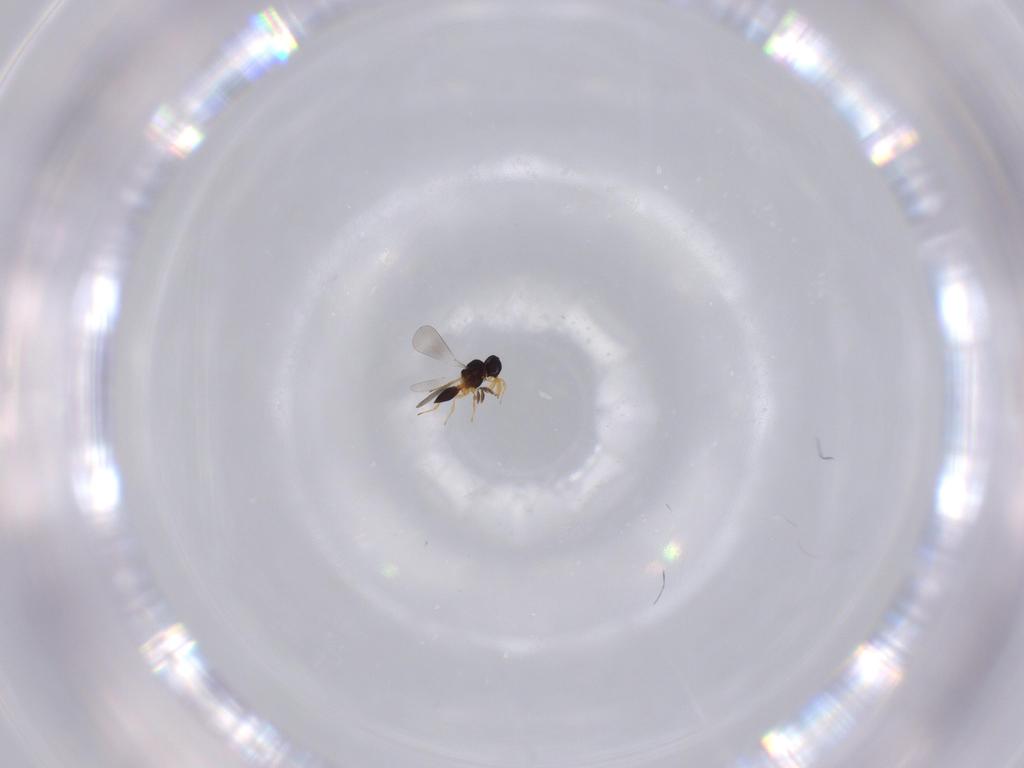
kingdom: Animalia
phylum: Arthropoda
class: Insecta
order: Hymenoptera
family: Platygastridae
